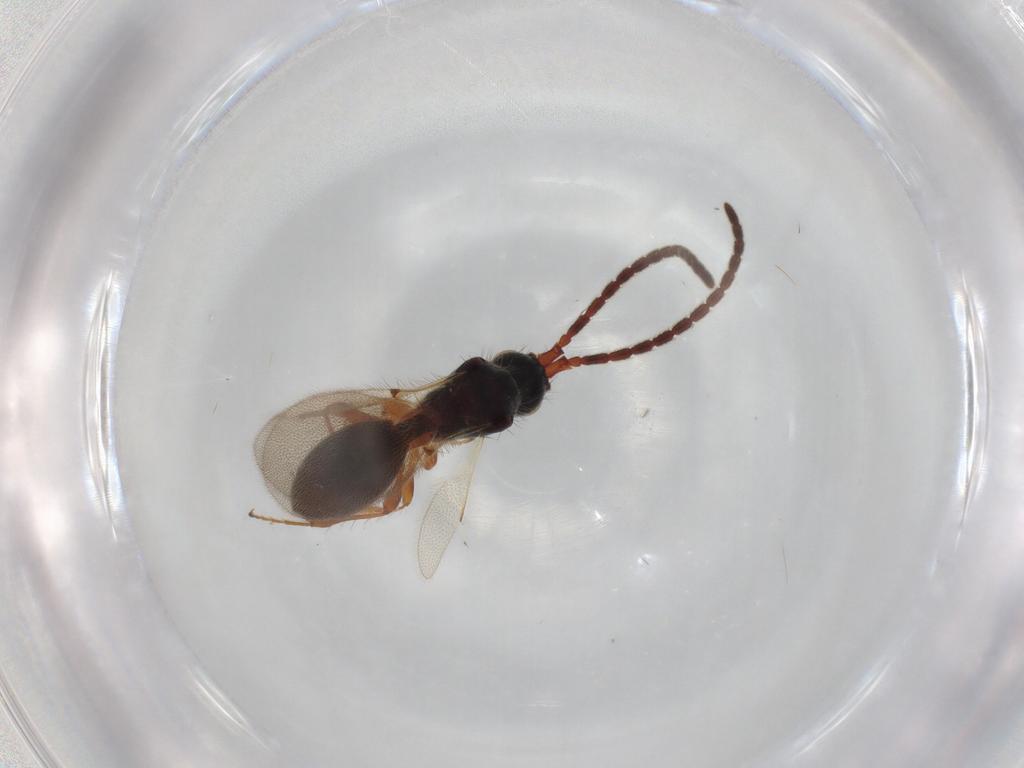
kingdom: Animalia
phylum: Arthropoda
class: Insecta
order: Hymenoptera
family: Diapriidae
